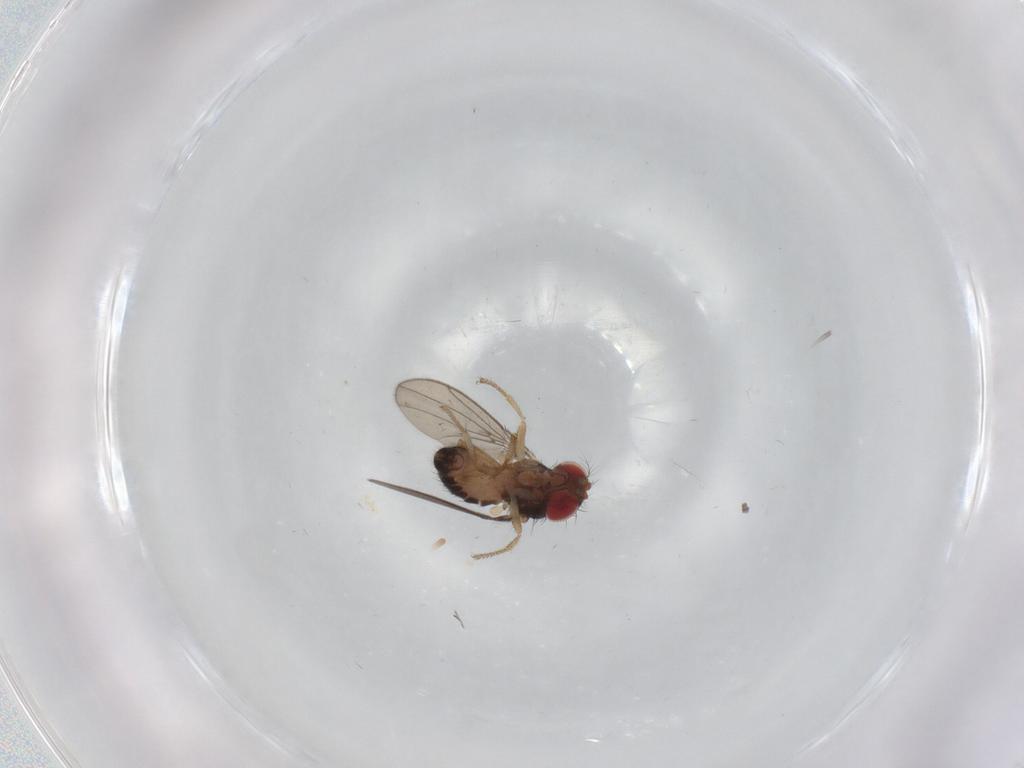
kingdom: Animalia
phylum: Arthropoda
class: Insecta
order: Diptera
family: Drosophilidae
